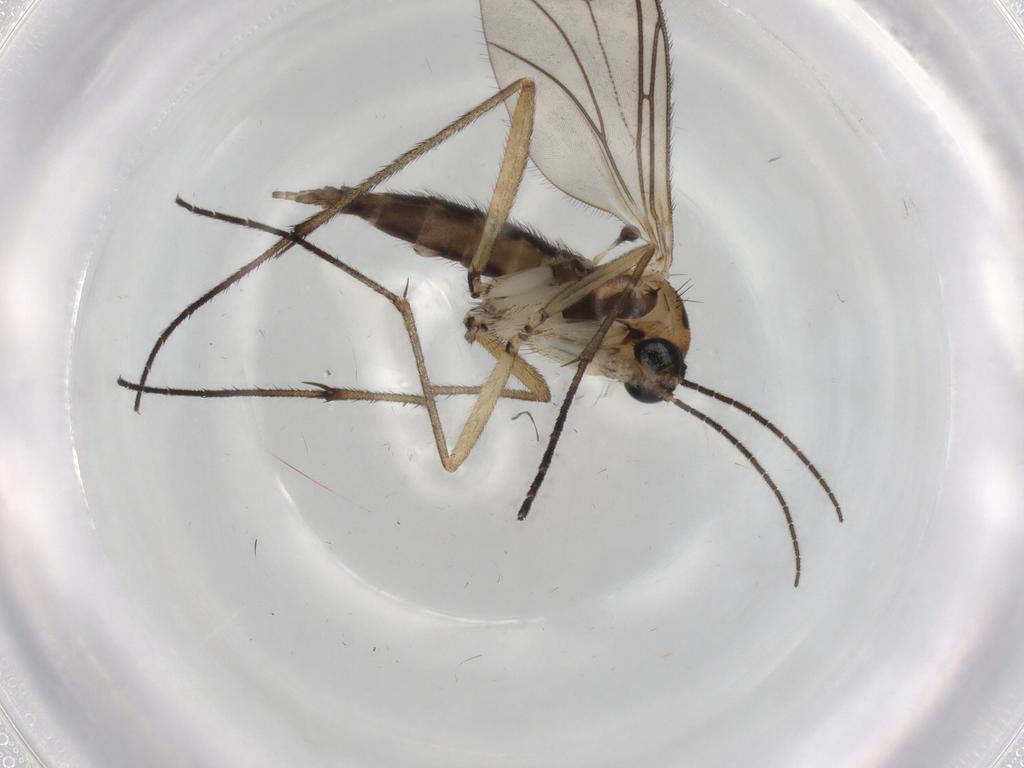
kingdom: Animalia
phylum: Arthropoda
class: Insecta
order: Diptera
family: Sciaridae
